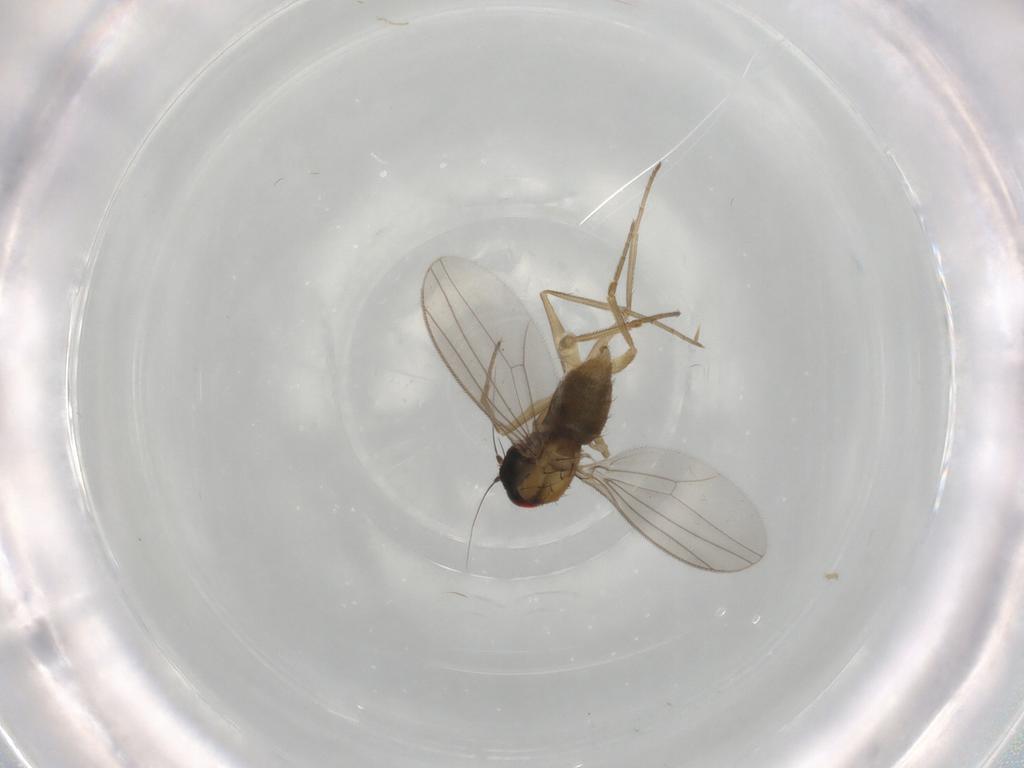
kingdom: Animalia
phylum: Arthropoda
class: Insecta
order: Diptera
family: Dolichopodidae
